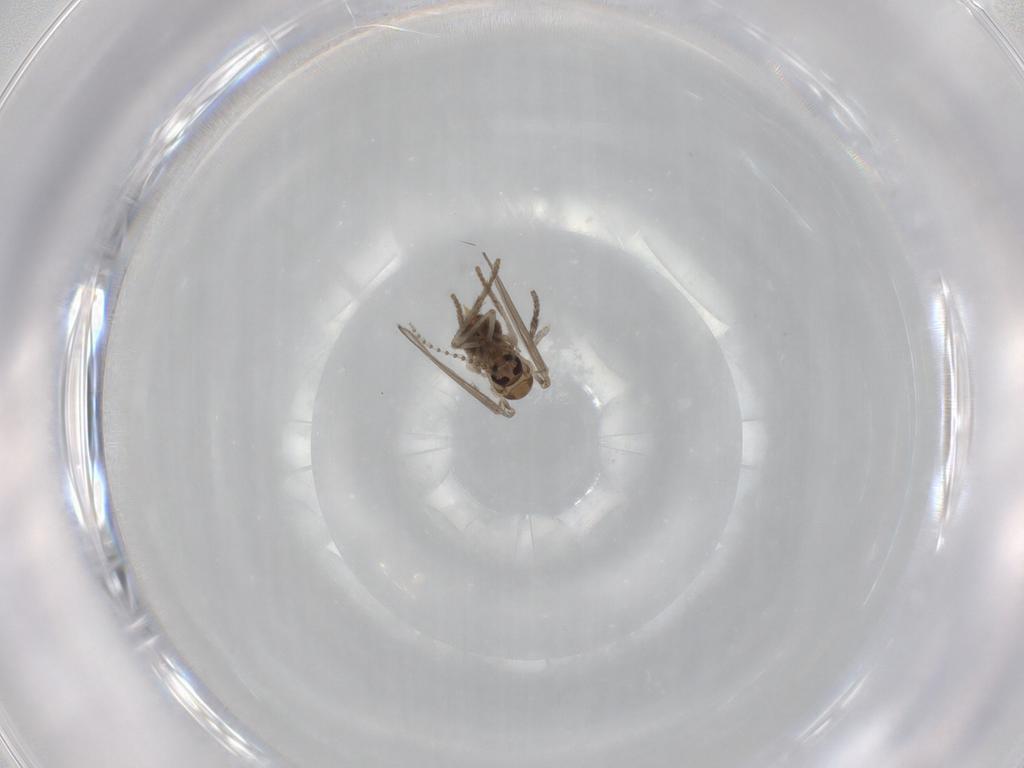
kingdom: Animalia
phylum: Arthropoda
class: Insecta
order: Diptera
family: Psychodidae
